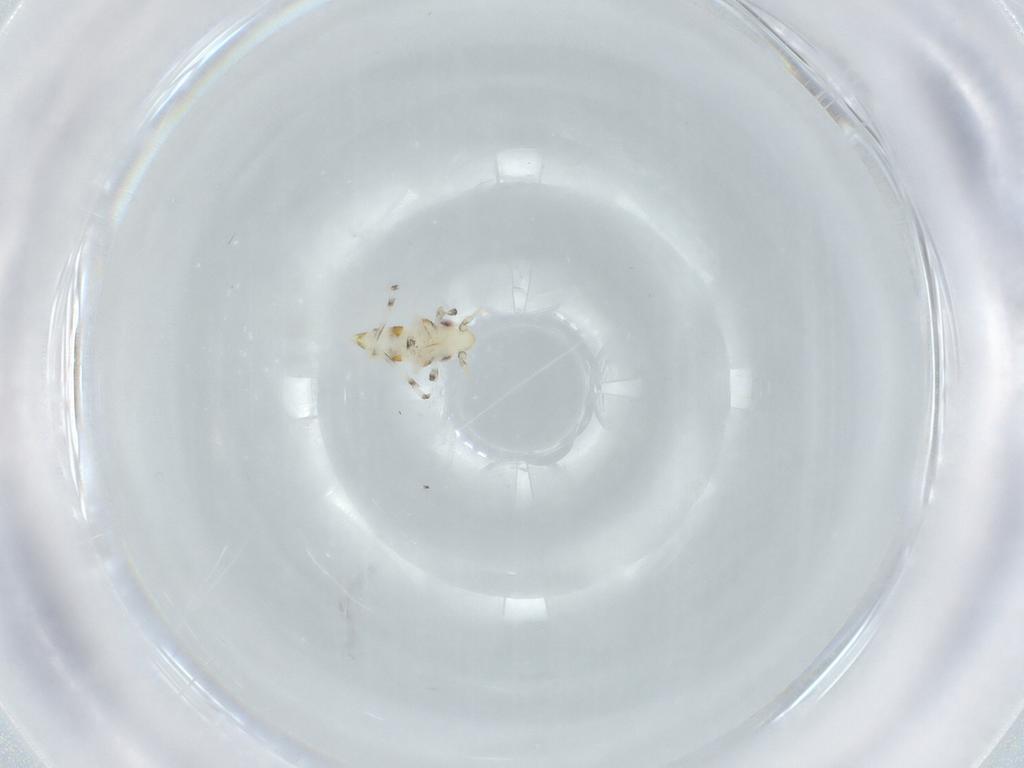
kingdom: Animalia
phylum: Arthropoda
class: Insecta
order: Hemiptera
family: Cicadellidae
